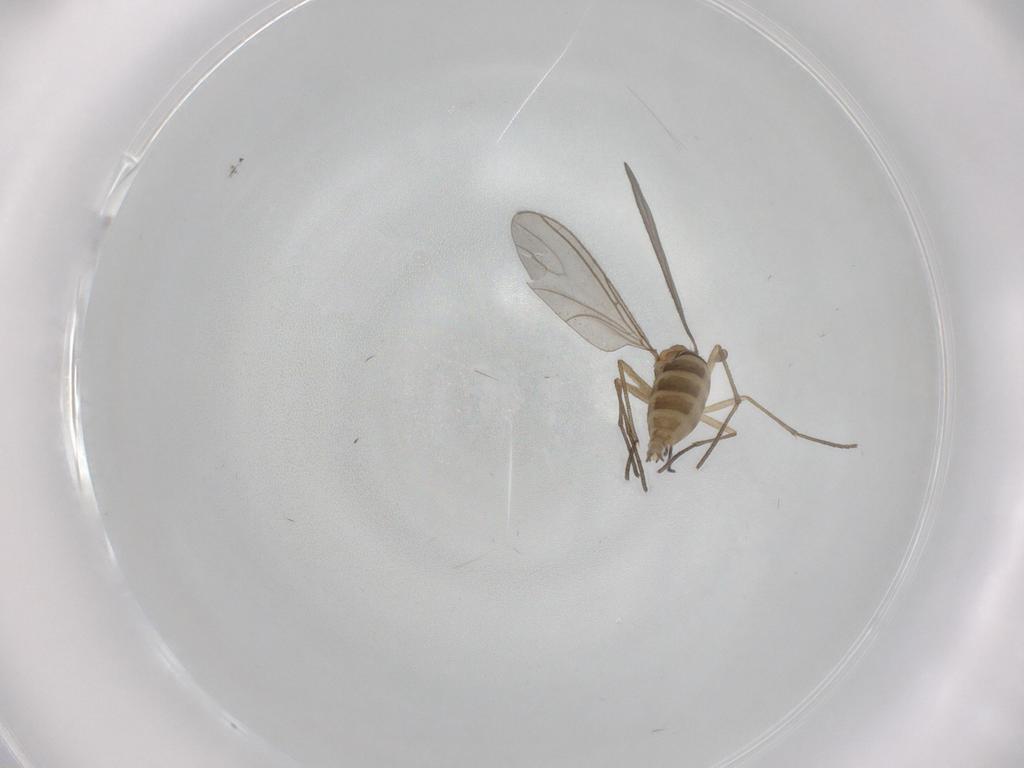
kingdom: Animalia
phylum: Arthropoda
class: Insecta
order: Diptera
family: Sciaridae
